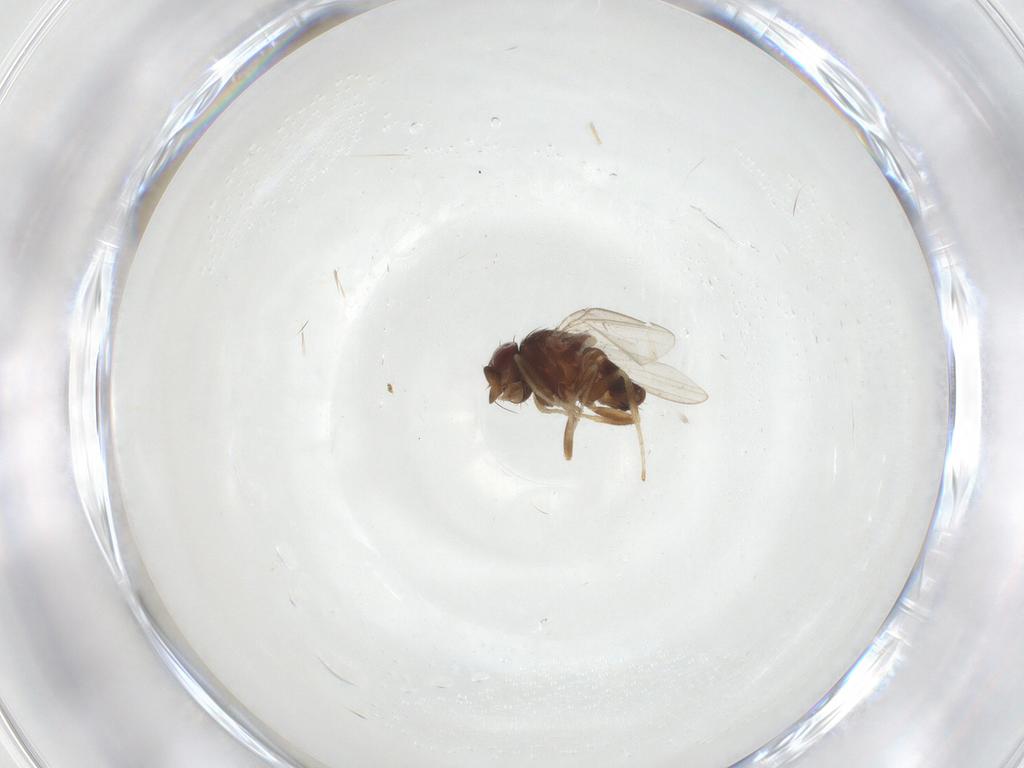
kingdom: Animalia
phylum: Arthropoda
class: Insecta
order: Diptera
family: Milichiidae
